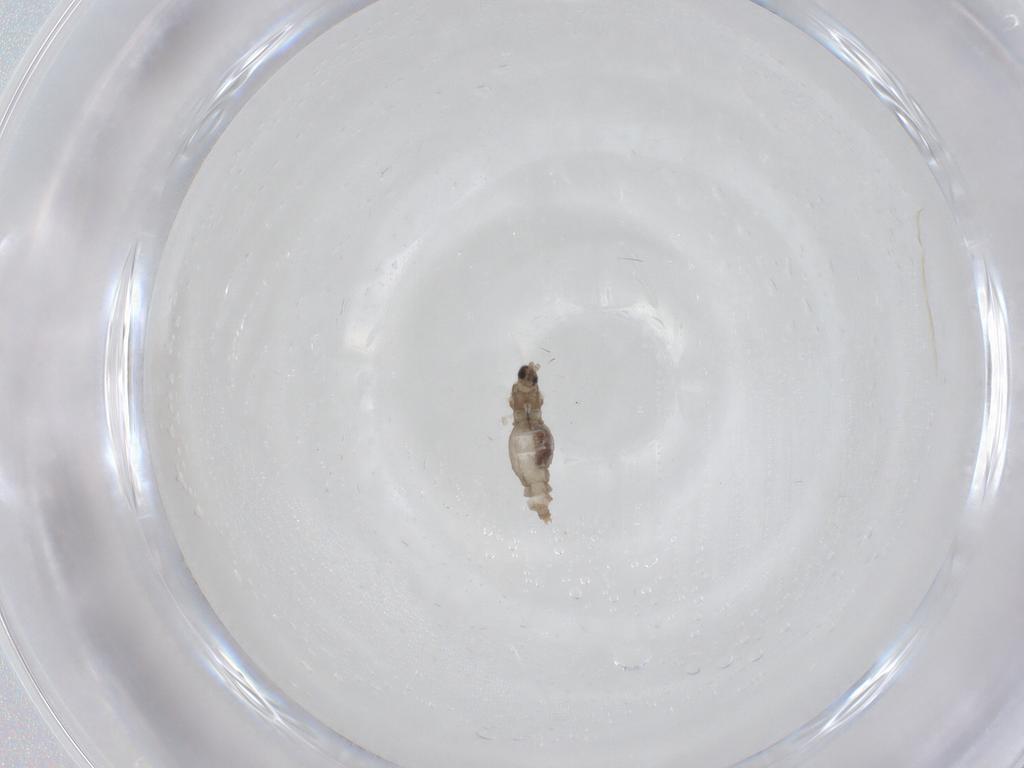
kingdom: Animalia
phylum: Arthropoda
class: Insecta
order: Diptera
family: Cecidomyiidae
